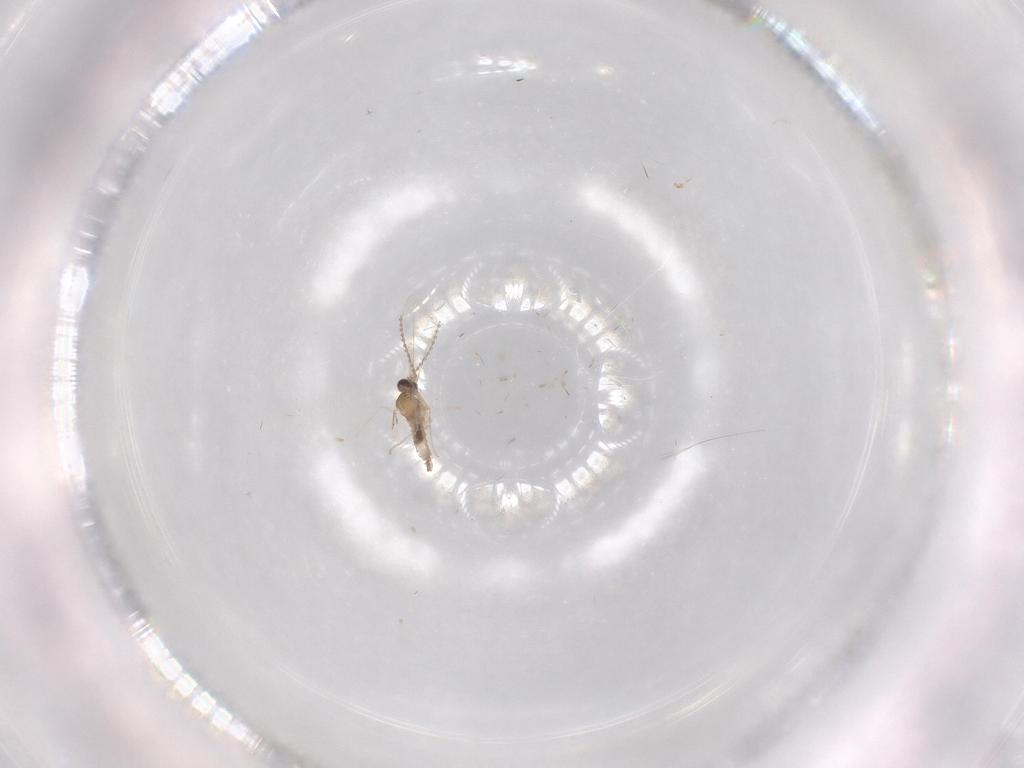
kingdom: Animalia
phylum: Arthropoda
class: Insecta
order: Diptera
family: Cecidomyiidae
